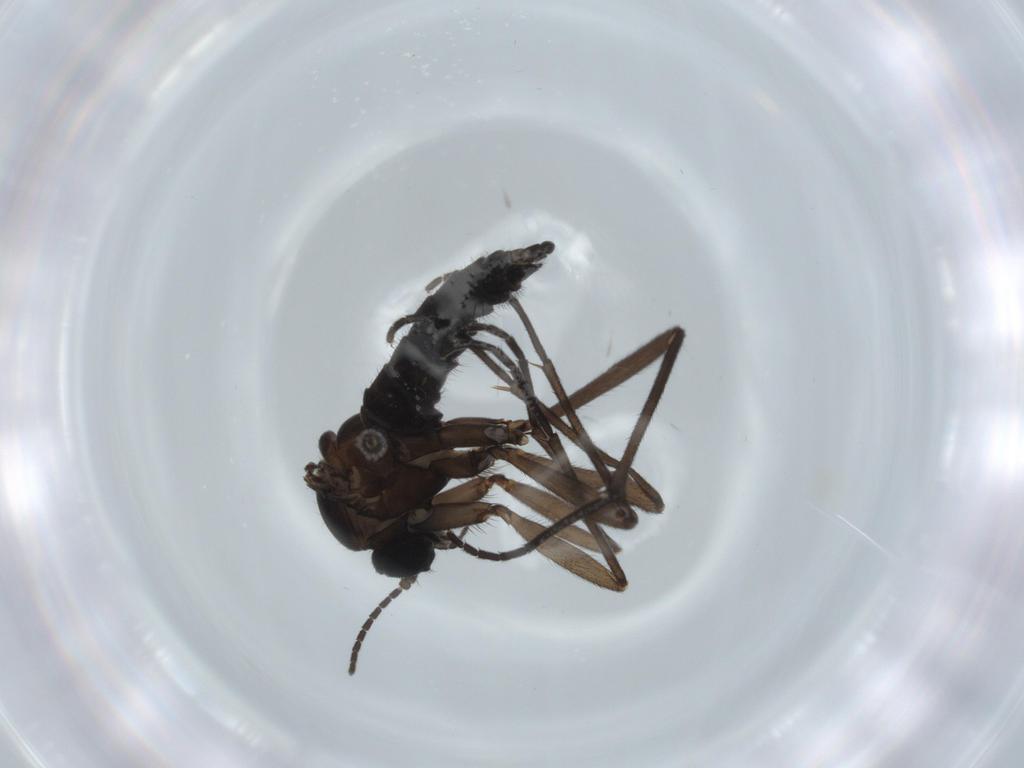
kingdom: Animalia
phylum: Arthropoda
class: Insecta
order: Diptera
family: Sciaridae
